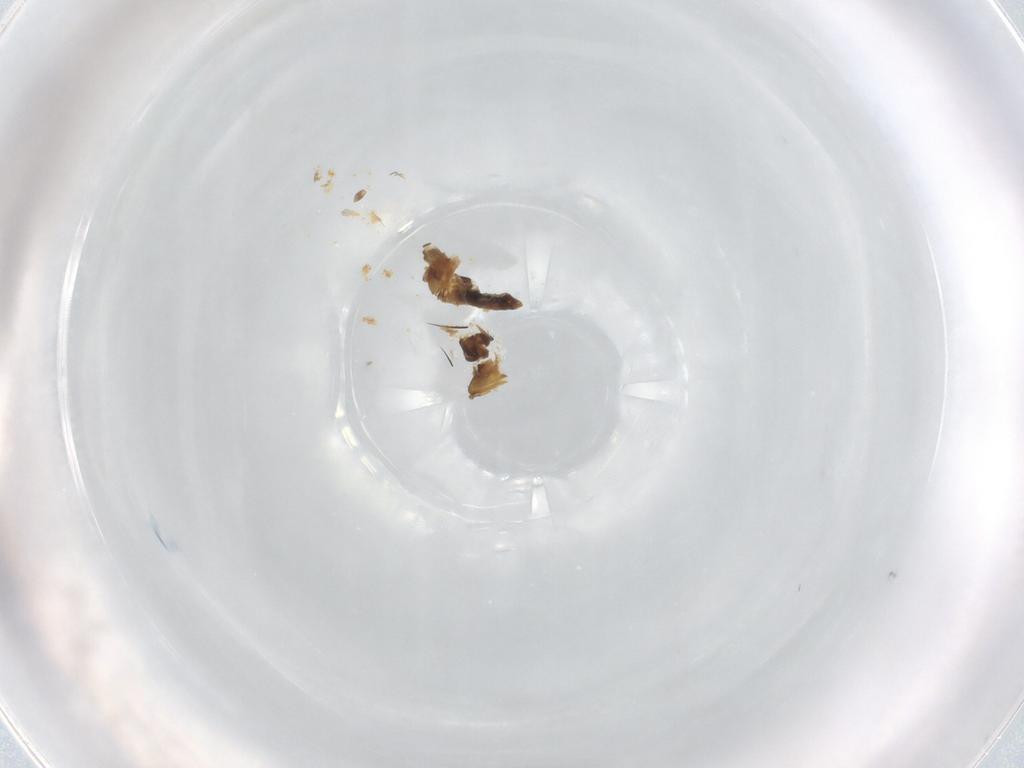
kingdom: Animalia
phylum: Arthropoda
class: Insecta
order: Diptera
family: Chironomidae
